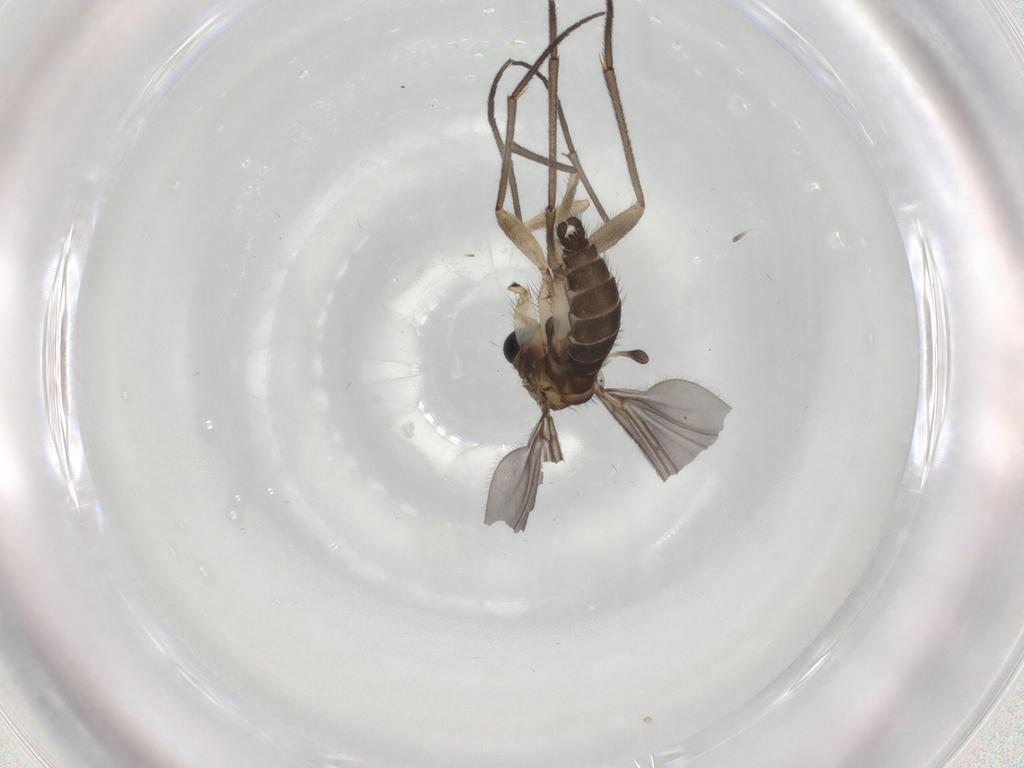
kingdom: Animalia
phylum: Arthropoda
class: Insecta
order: Diptera
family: Sciaridae
